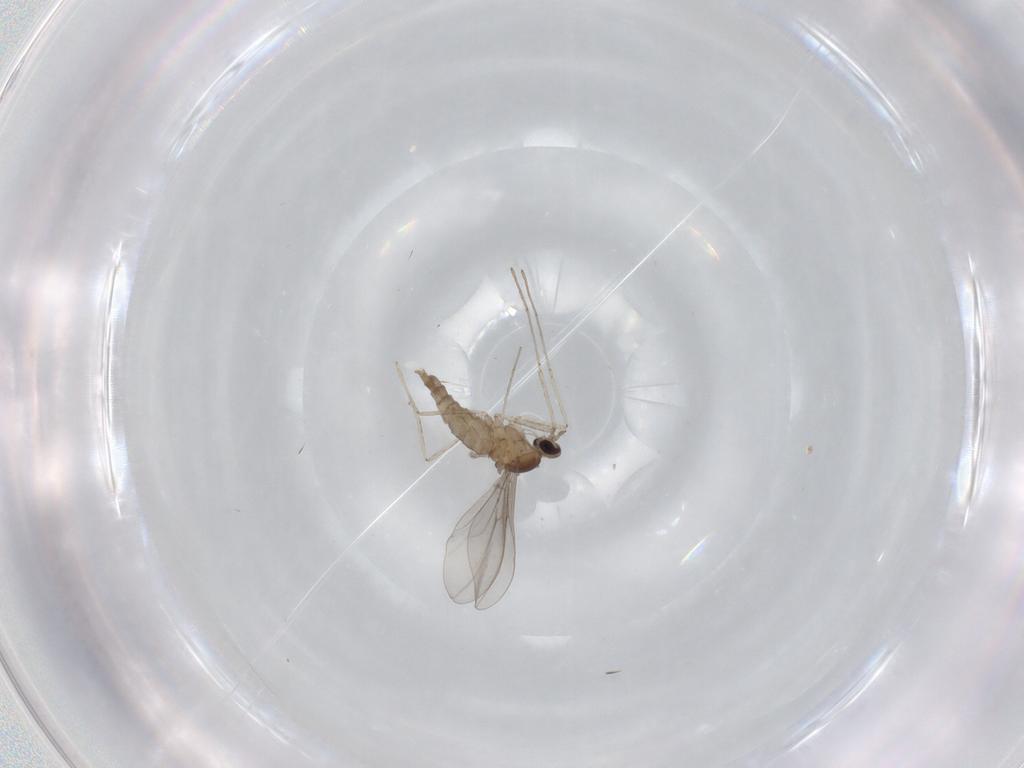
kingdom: Animalia
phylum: Arthropoda
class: Insecta
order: Diptera
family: Cecidomyiidae
